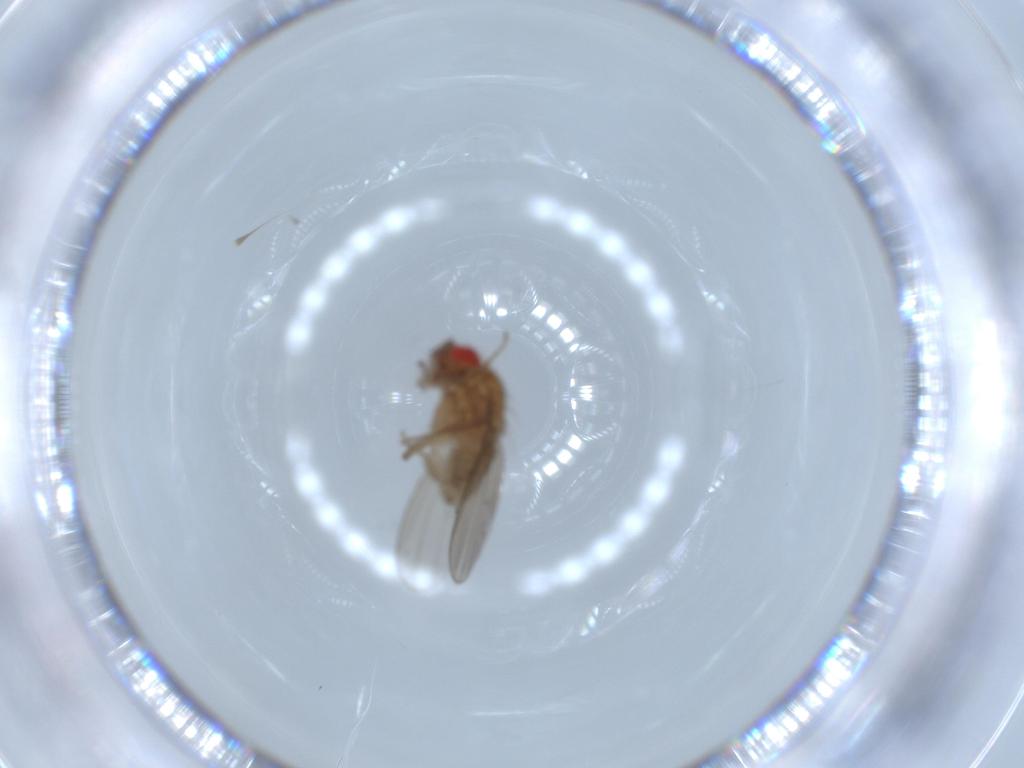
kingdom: Animalia
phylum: Arthropoda
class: Insecta
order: Diptera
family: Drosophilidae
